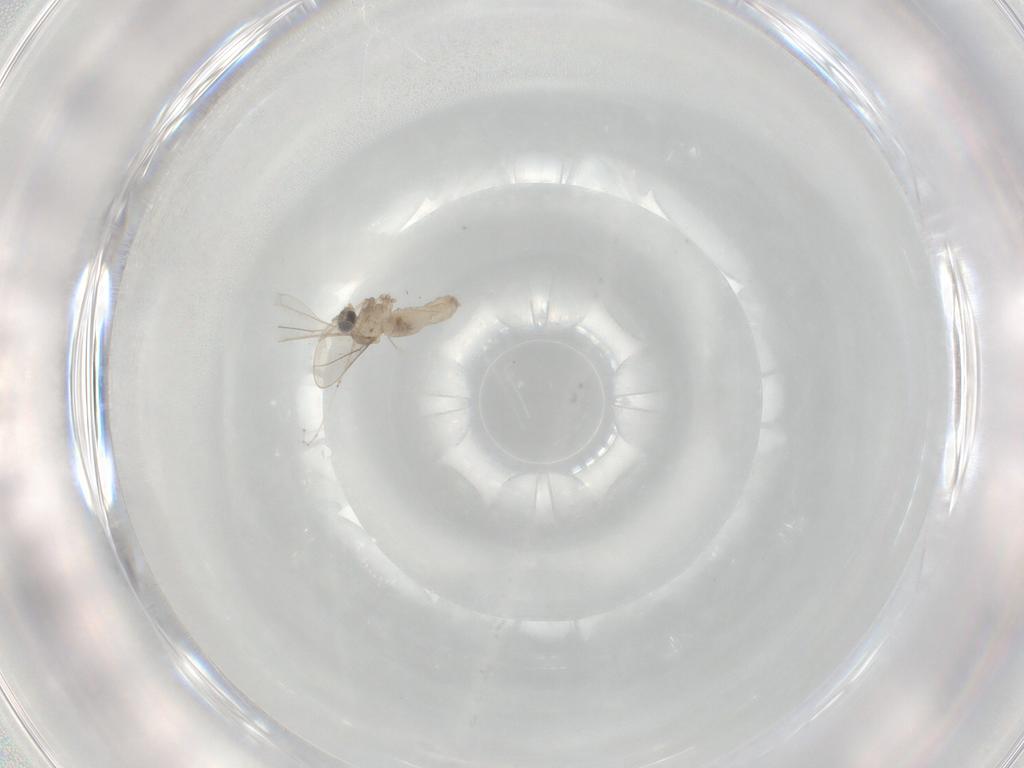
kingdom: Animalia
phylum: Arthropoda
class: Insecta
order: Diptera
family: Cecidomyiidae
